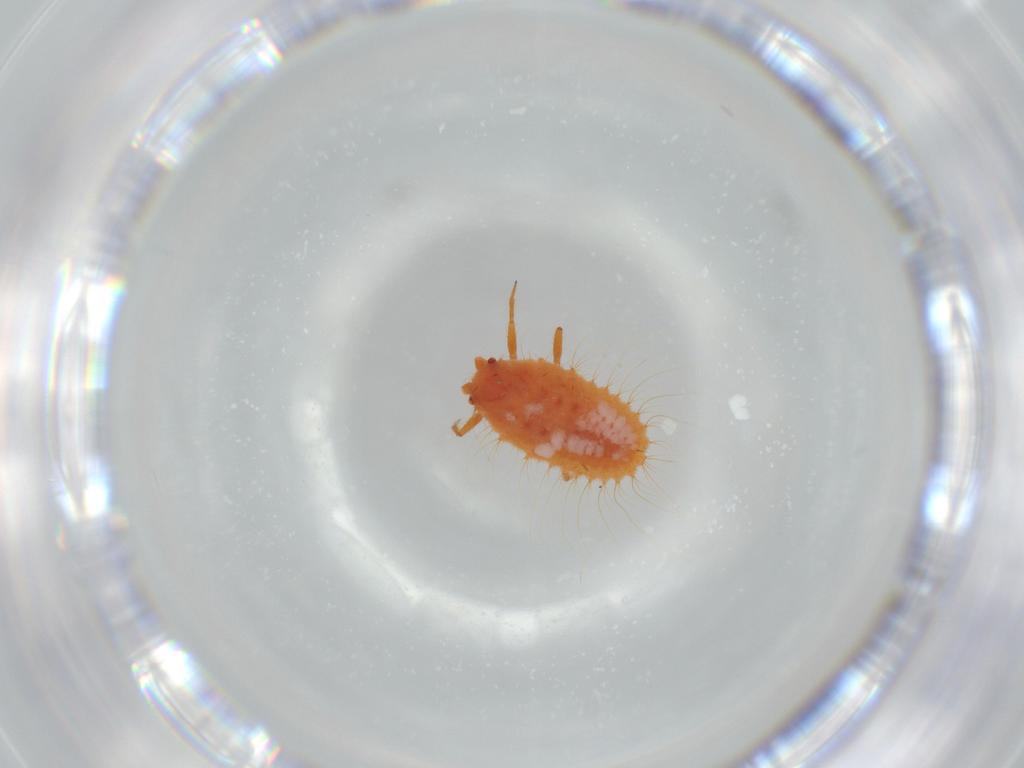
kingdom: Animalia
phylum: Arthropoda
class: Insecta
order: Hemiptera
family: Coccoidea_incertae_sedis
